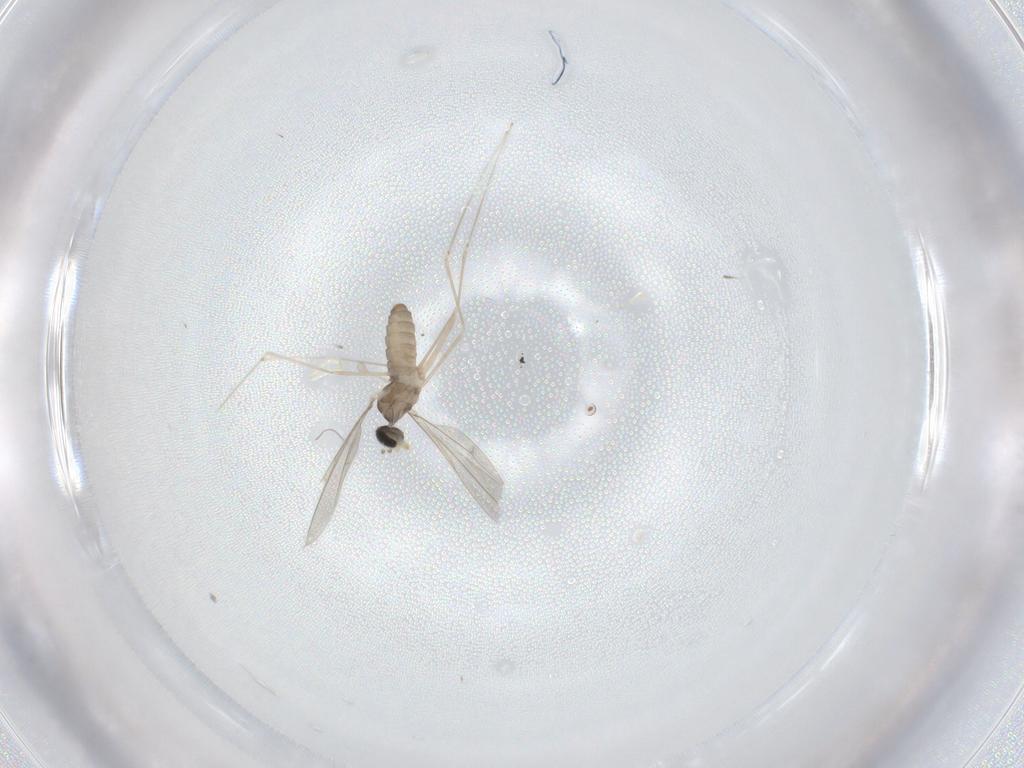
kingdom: Animalia
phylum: Arthropoda
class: Insecta
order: Diptera
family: Cecidomyiidae
